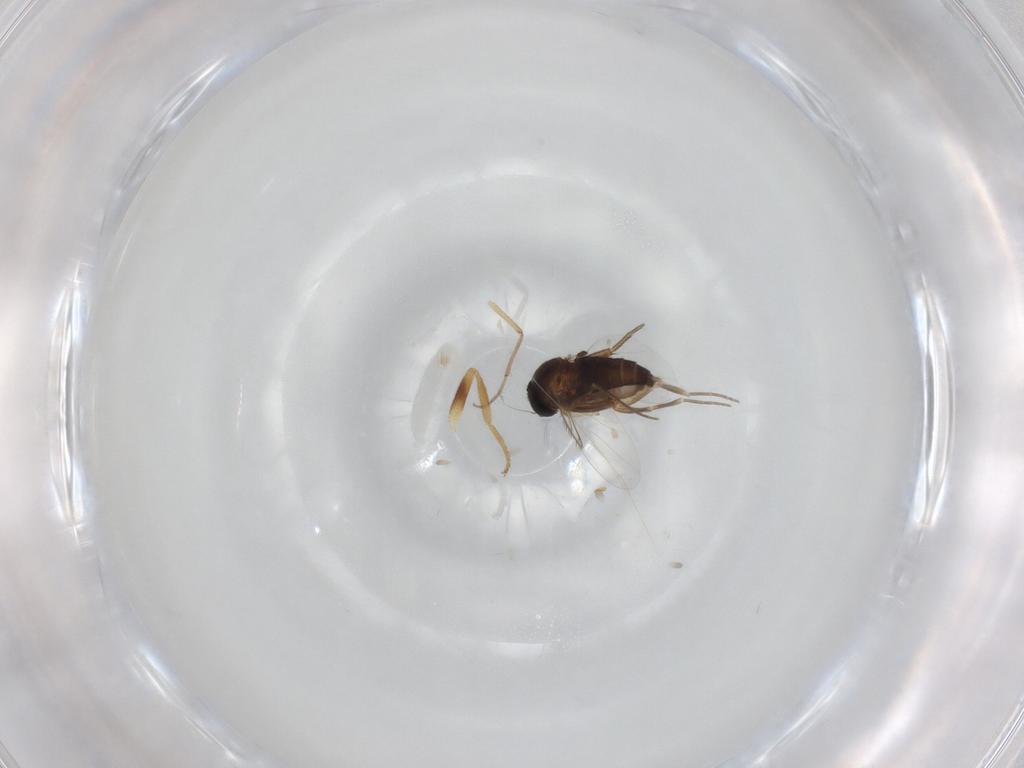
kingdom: Animalia
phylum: Arthropoda
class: Insecta
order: Diptera
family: Phoridae
